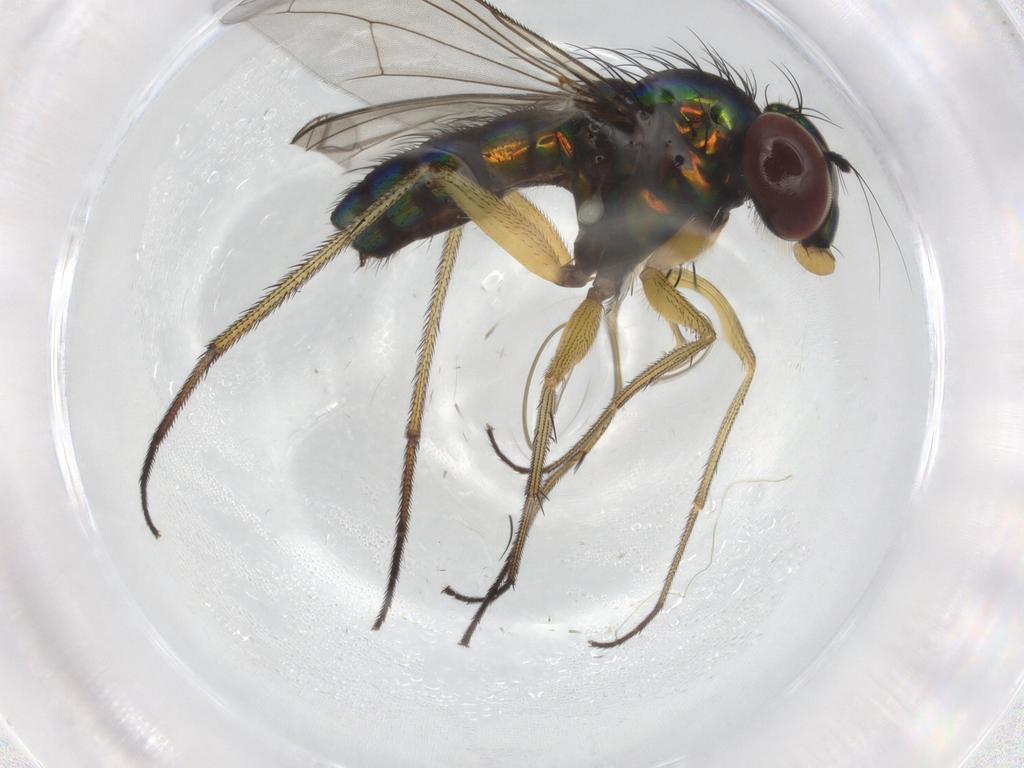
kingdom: Animalia
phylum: Arthropoda
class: Insecta
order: Diptera
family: Dolichopodidae
